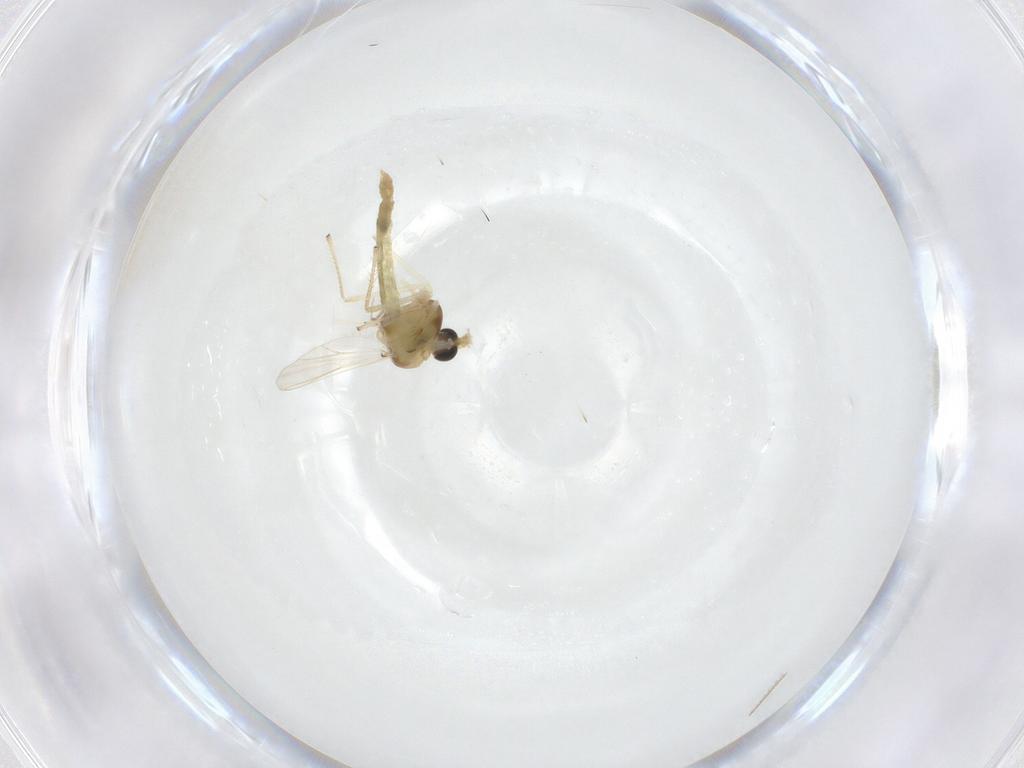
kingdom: Animalia
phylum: Arthropoda
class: Insecta
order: Diptera
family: Chironomidae
